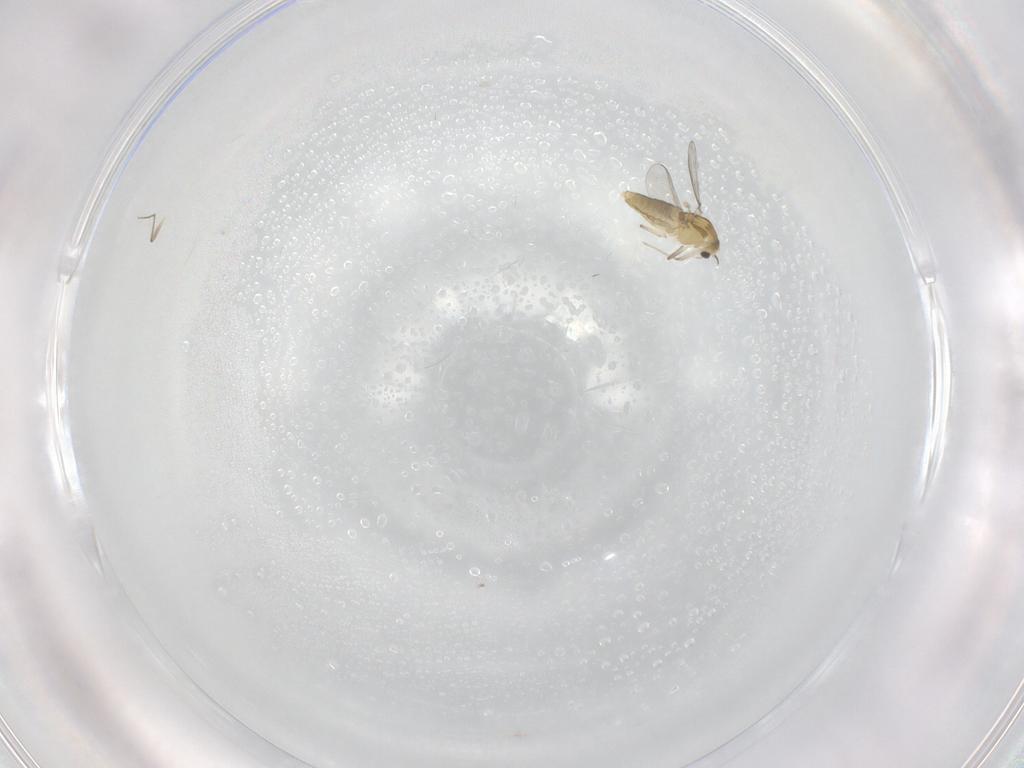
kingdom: Animalia
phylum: Arthropoda
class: Insecta
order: Diptera
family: Chironomidae
